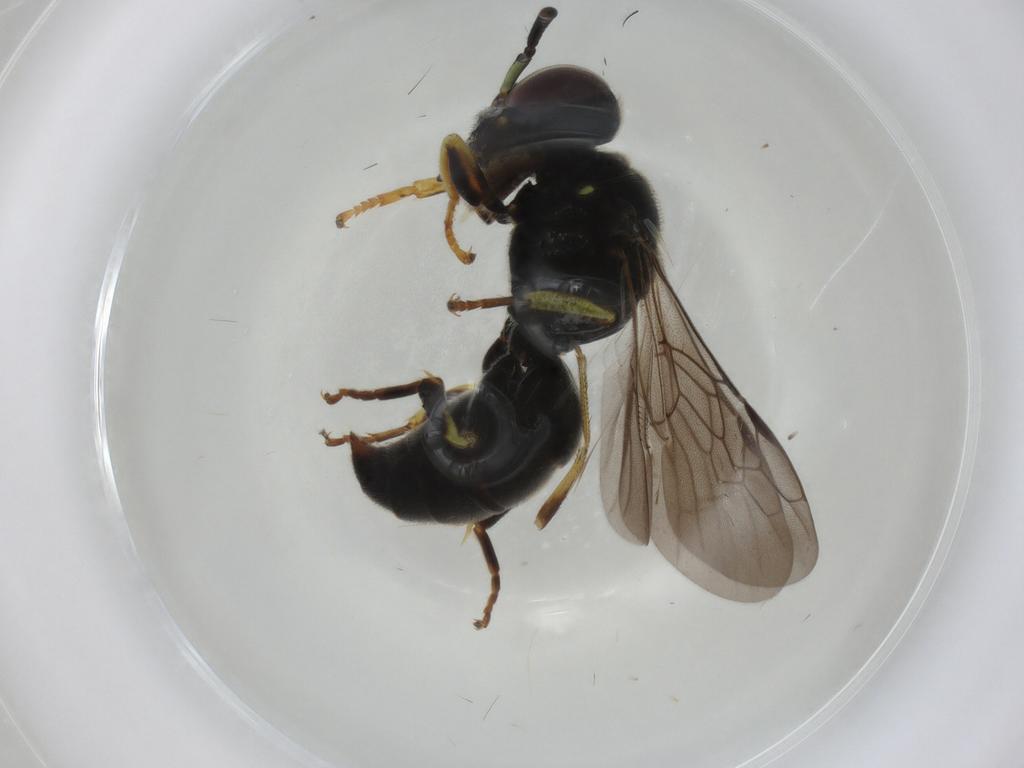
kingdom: Animalia
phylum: Arthropoda
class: Insecta
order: Hymenoptera
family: Crabronidae
